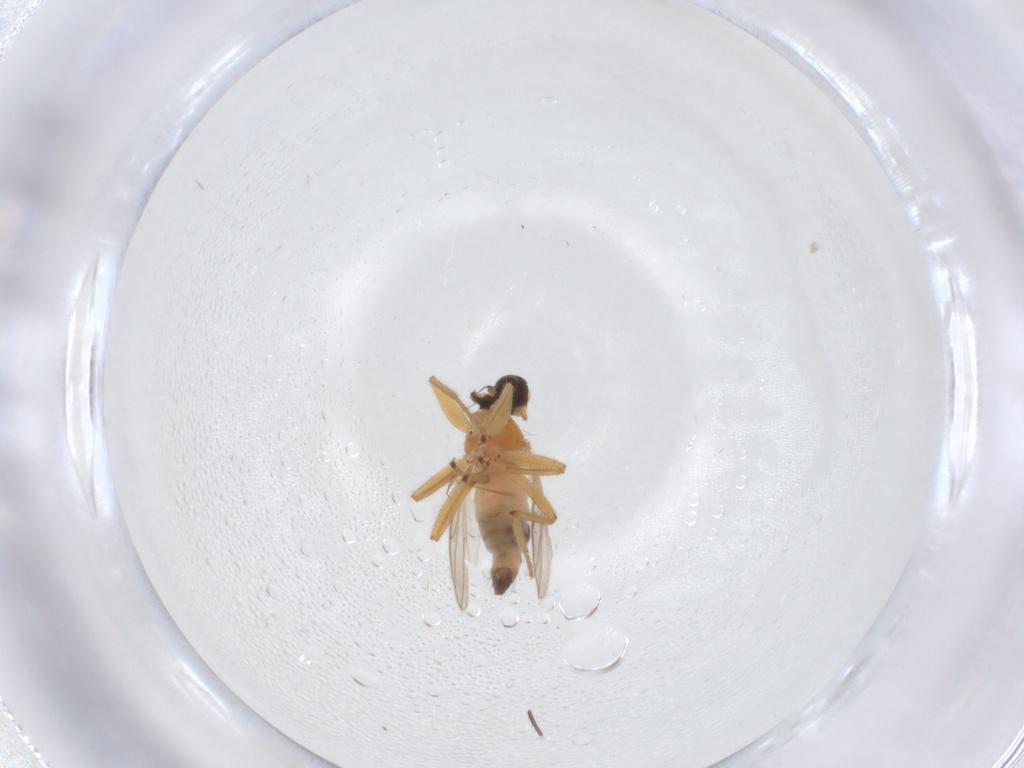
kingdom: Animalia
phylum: Arthropoda
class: Insecta
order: Diptera
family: Hybotidae
